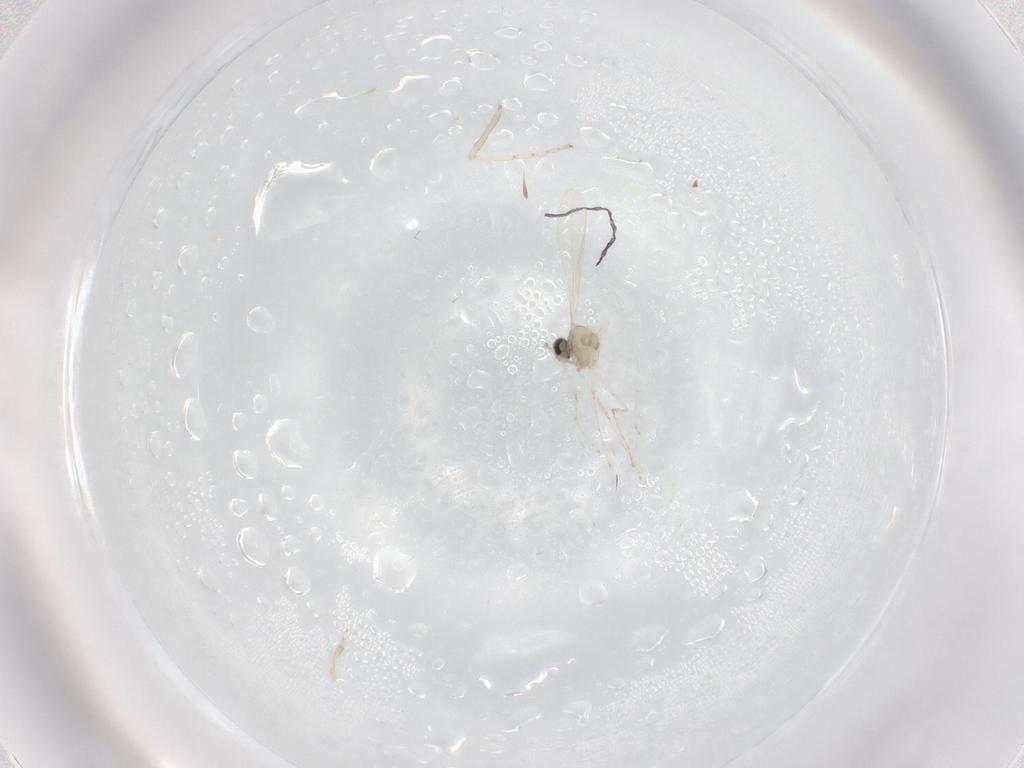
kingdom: Animalia
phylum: Arthropoda
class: Insecta
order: Diptera
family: Cecidomyiidae
